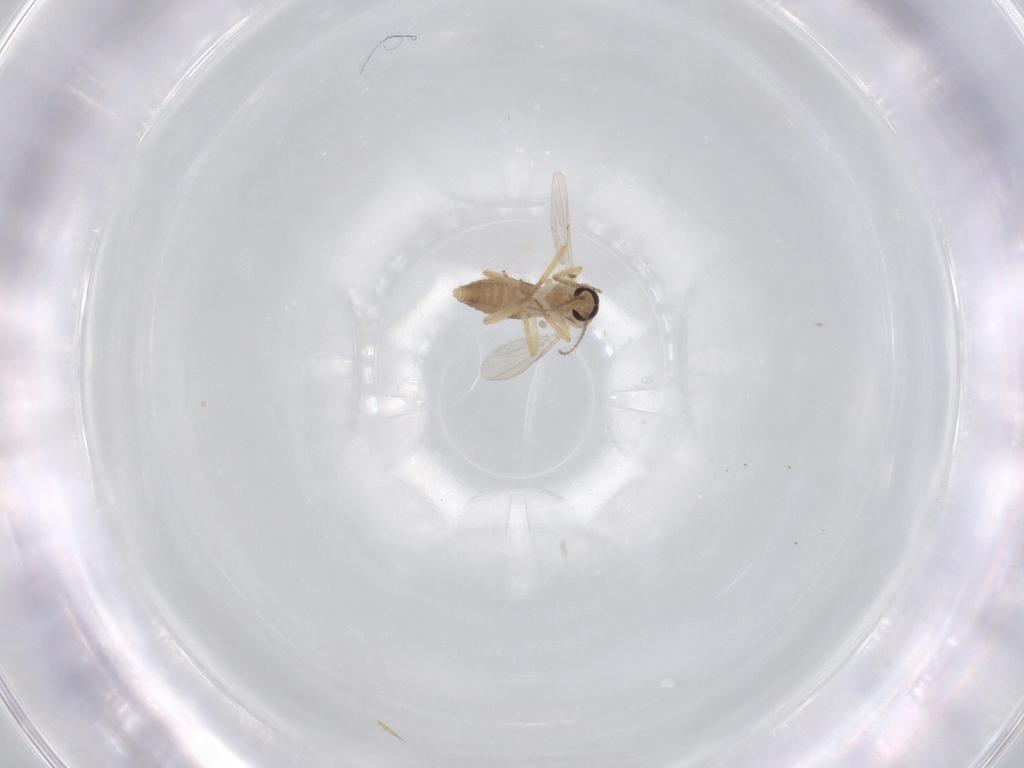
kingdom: Animalia
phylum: Arthropoda
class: Insecta
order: Diptera
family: Ceratopogonidae
